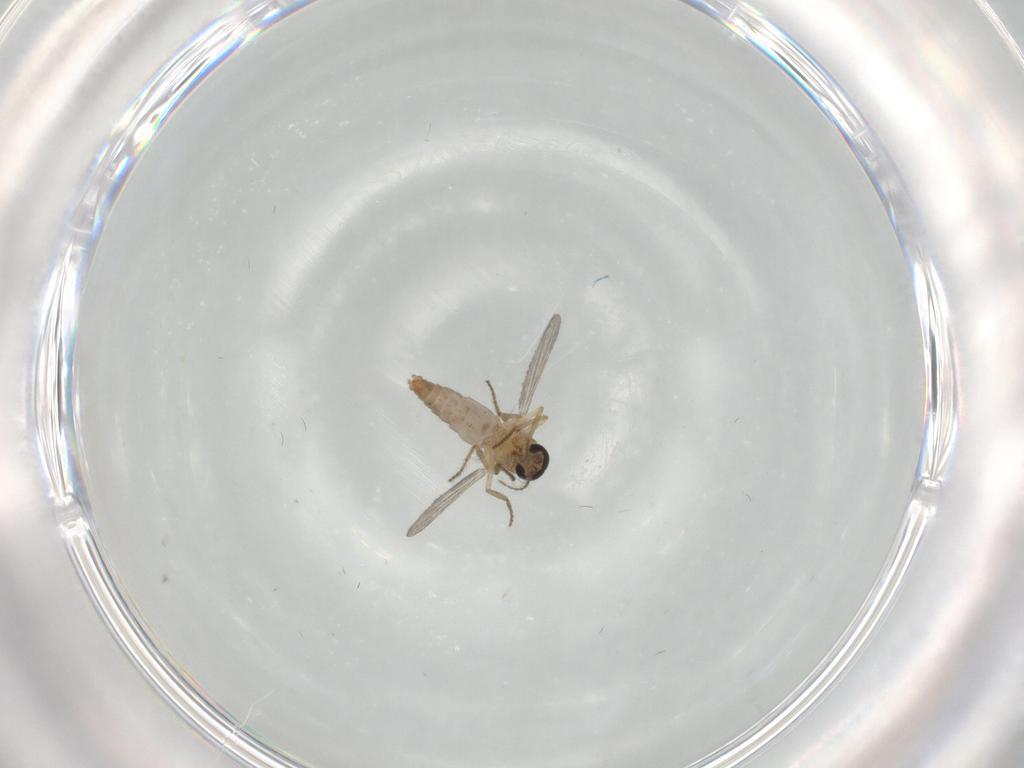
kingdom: Animalia
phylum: Arthropoda
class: Insecta
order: Diptera
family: Ceratopogonidae
